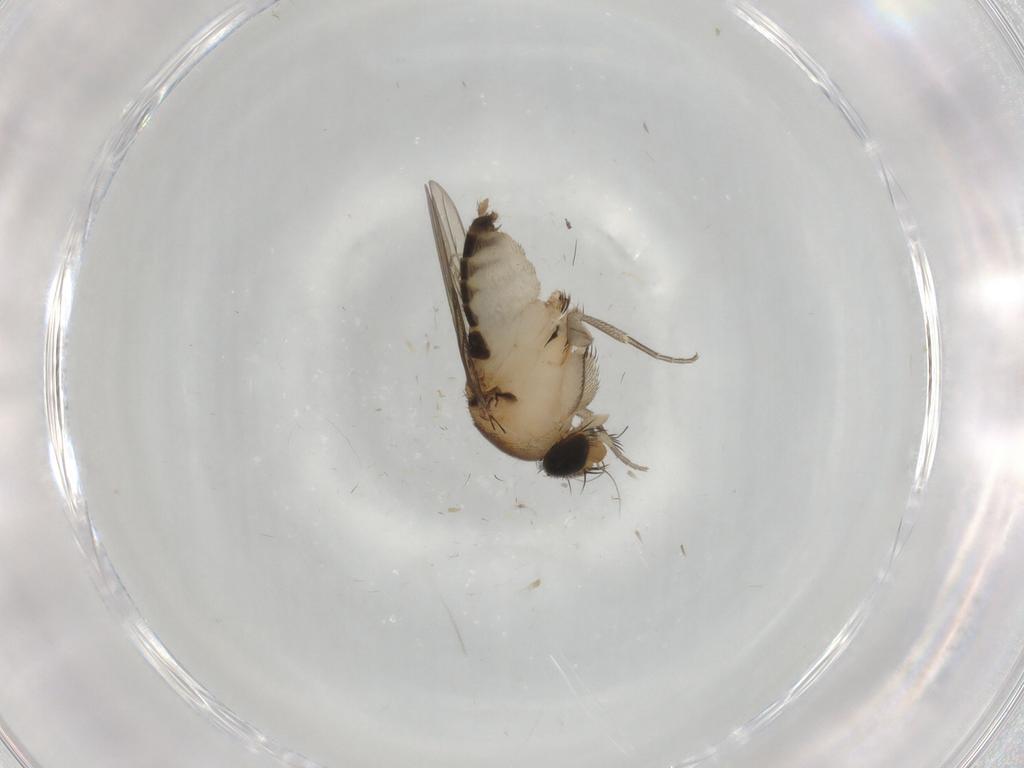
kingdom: Animalia
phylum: Arthropoda
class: Insecta
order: Diptera
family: Phoridae
